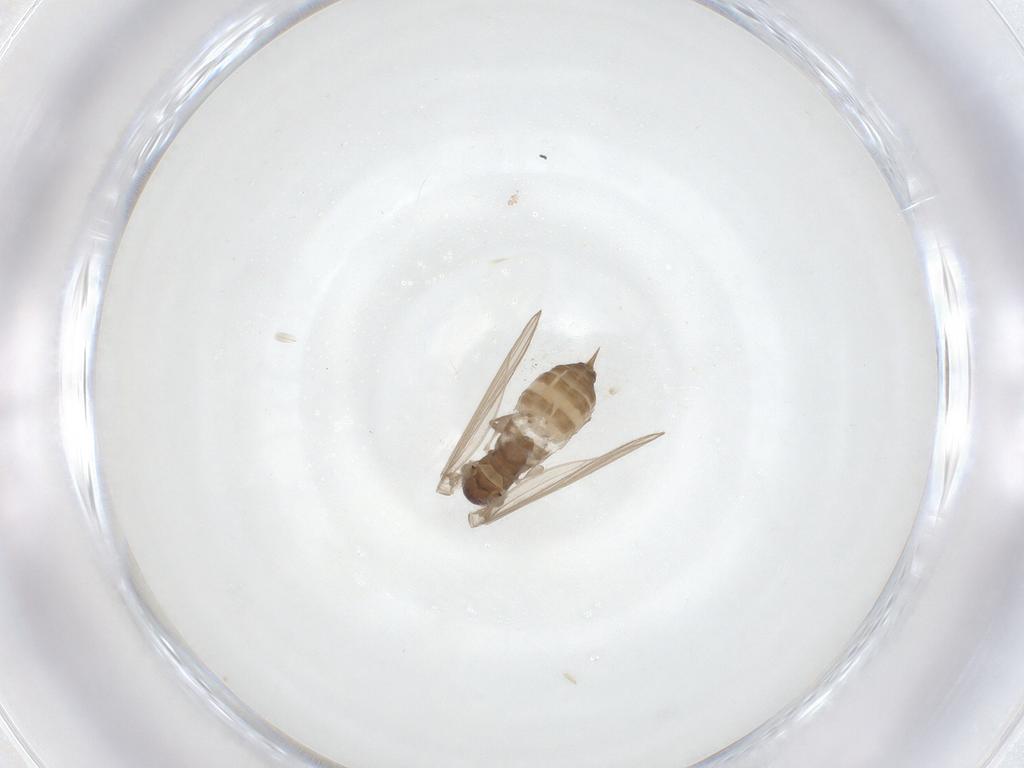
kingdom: Animalia
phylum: Arthropoda
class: Insecta
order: Diptera
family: Psychodidae
